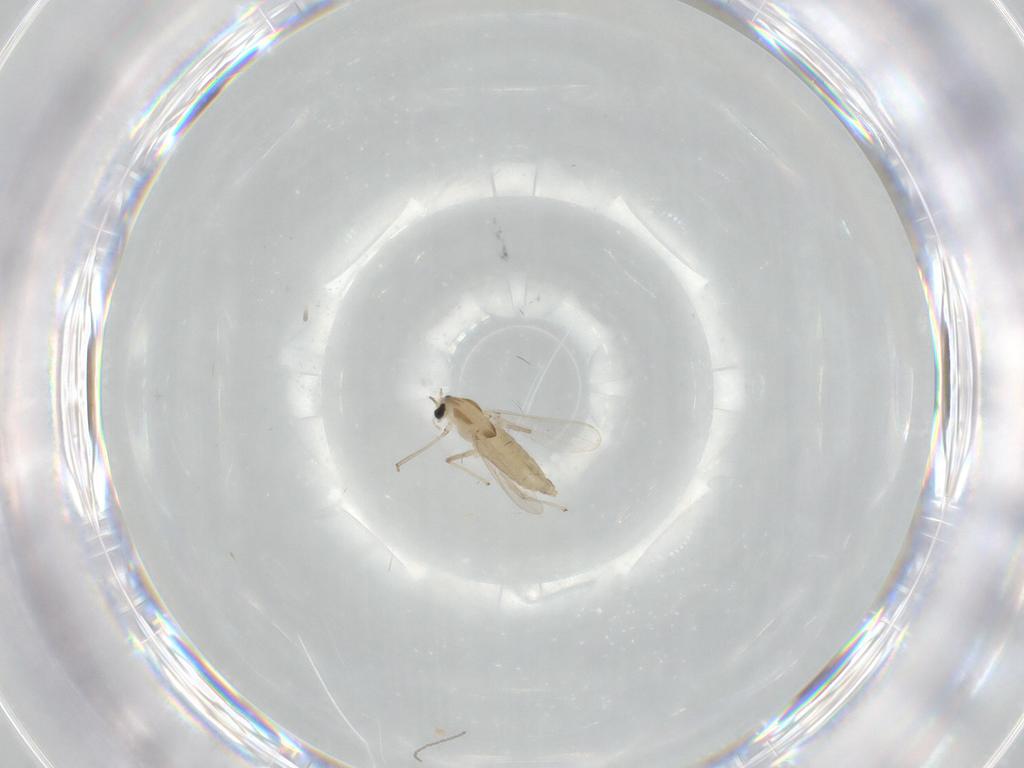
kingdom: Animalia
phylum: Arthropoda
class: Insecta
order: Diptera
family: Chironomidae
